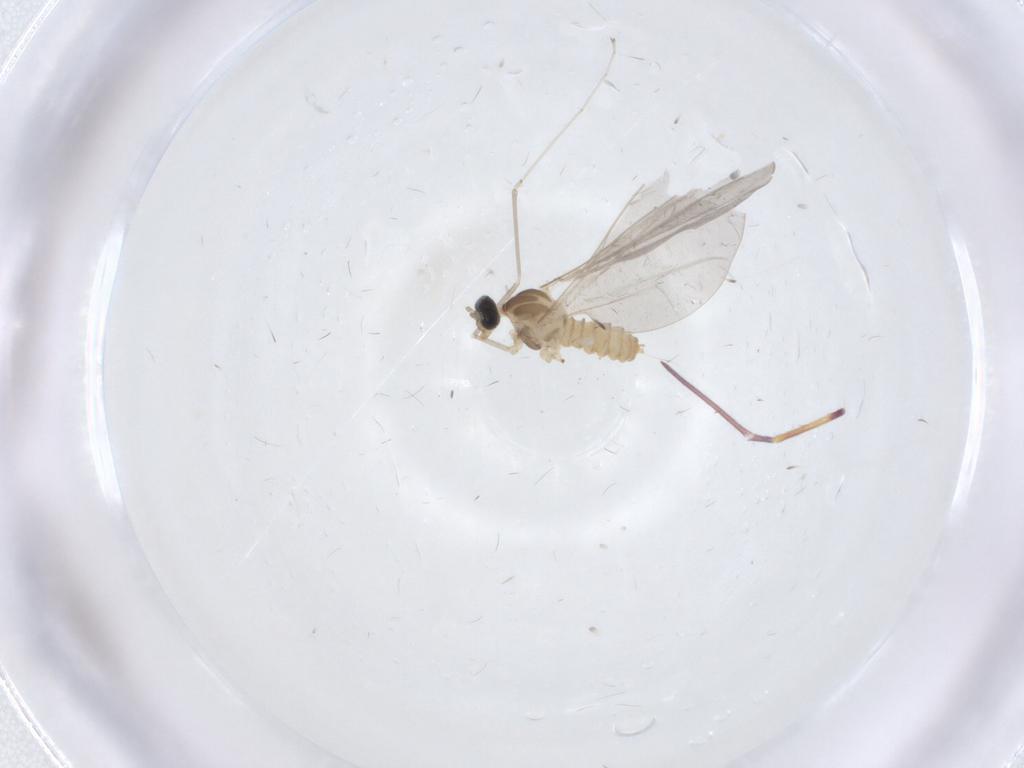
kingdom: Animalia
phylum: Arthropoda
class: Insecta
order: Diptera
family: Cecidomyiidae
